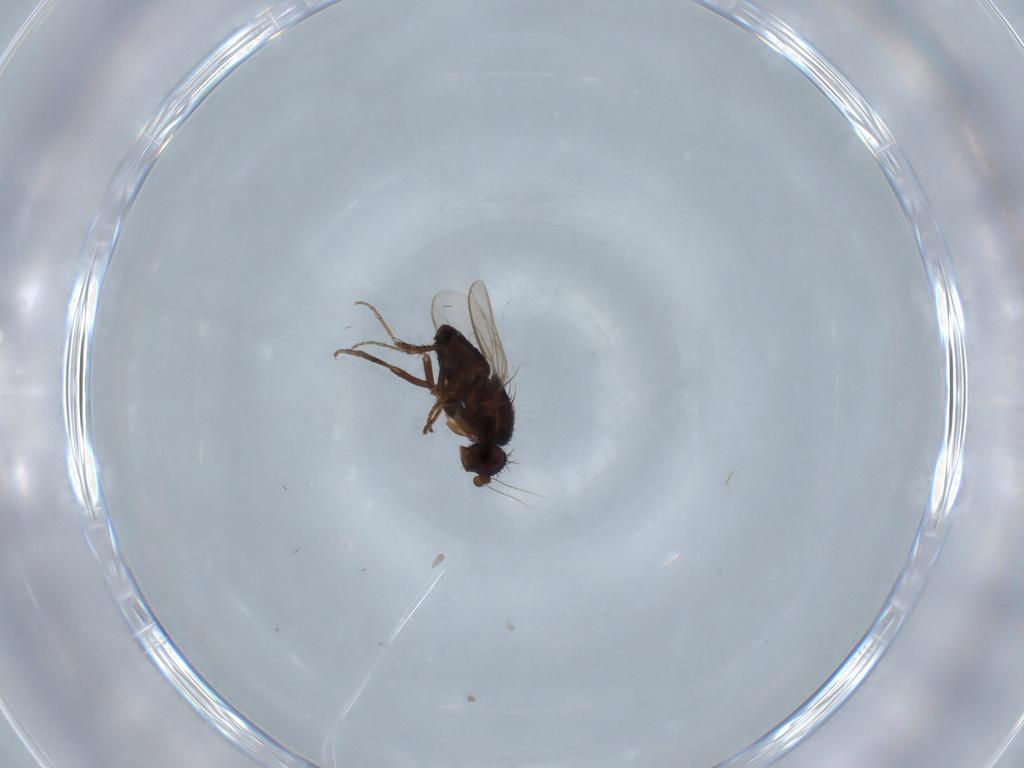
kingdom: Animalia
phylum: Arthropoda
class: Insecta
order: Diptera
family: Sphaeroceridae
